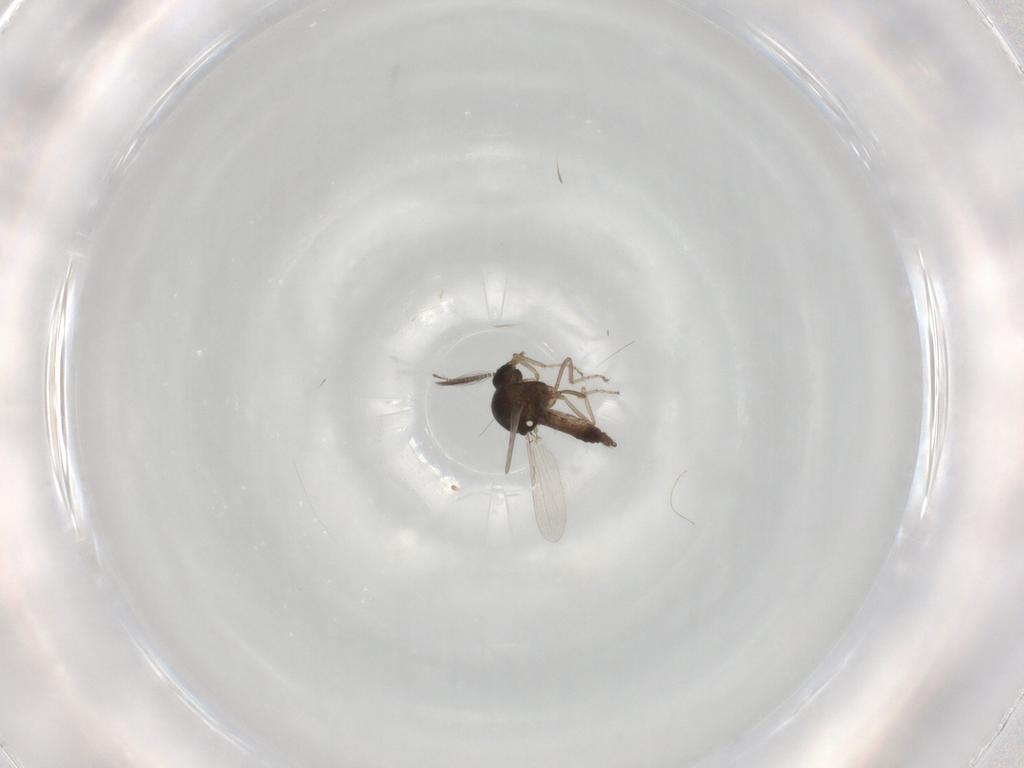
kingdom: Animalia
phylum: Arthropoda
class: Insecta
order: Diptera
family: Ceratopogonidae
